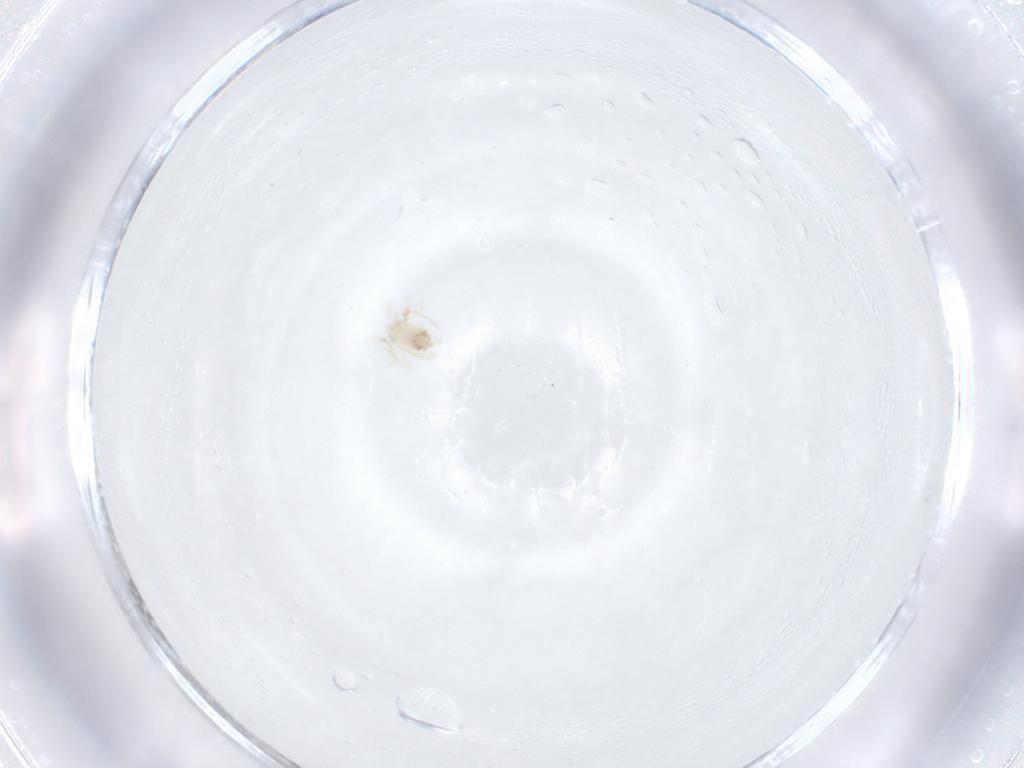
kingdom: Animalia
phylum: Arthropoda
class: Arachnida
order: Trombidiformes
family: Anystidae
